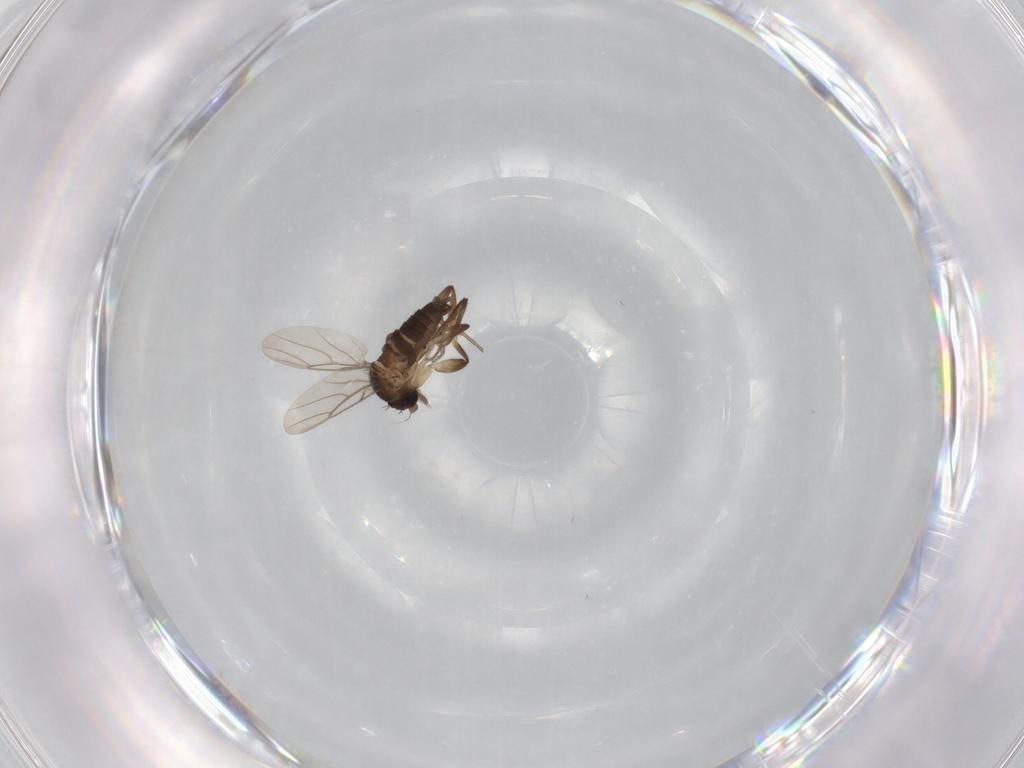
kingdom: Animalia
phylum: Arthropoda
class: Insecta
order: Diptera
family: Phoridae
